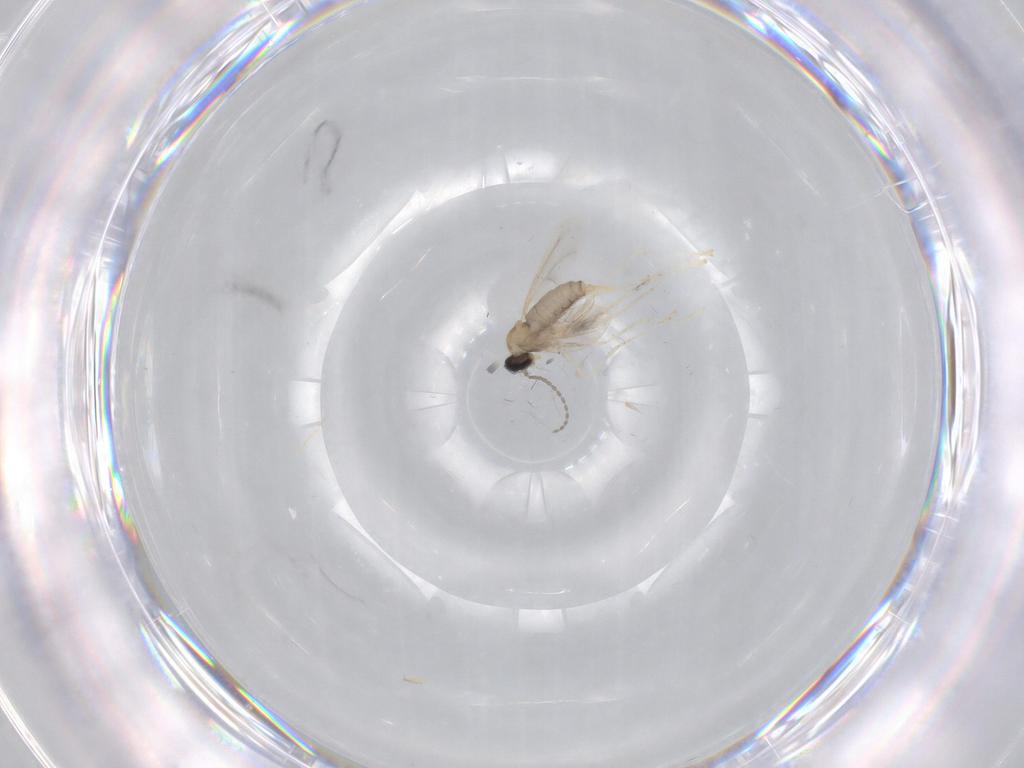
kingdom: Animalia
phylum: Arthropoda
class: Insecta
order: Diptera
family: Cecidomyiidae
